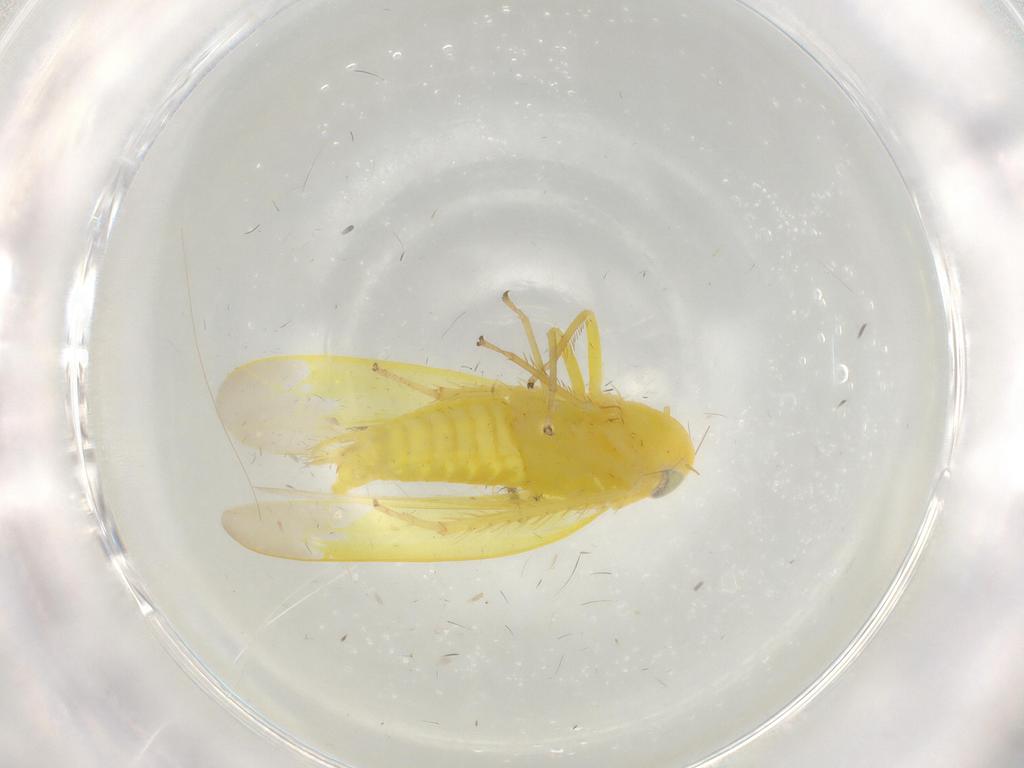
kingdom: Animalia
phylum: Arthropoda
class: Insecta
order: Hemiptera
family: Cicadellidae
